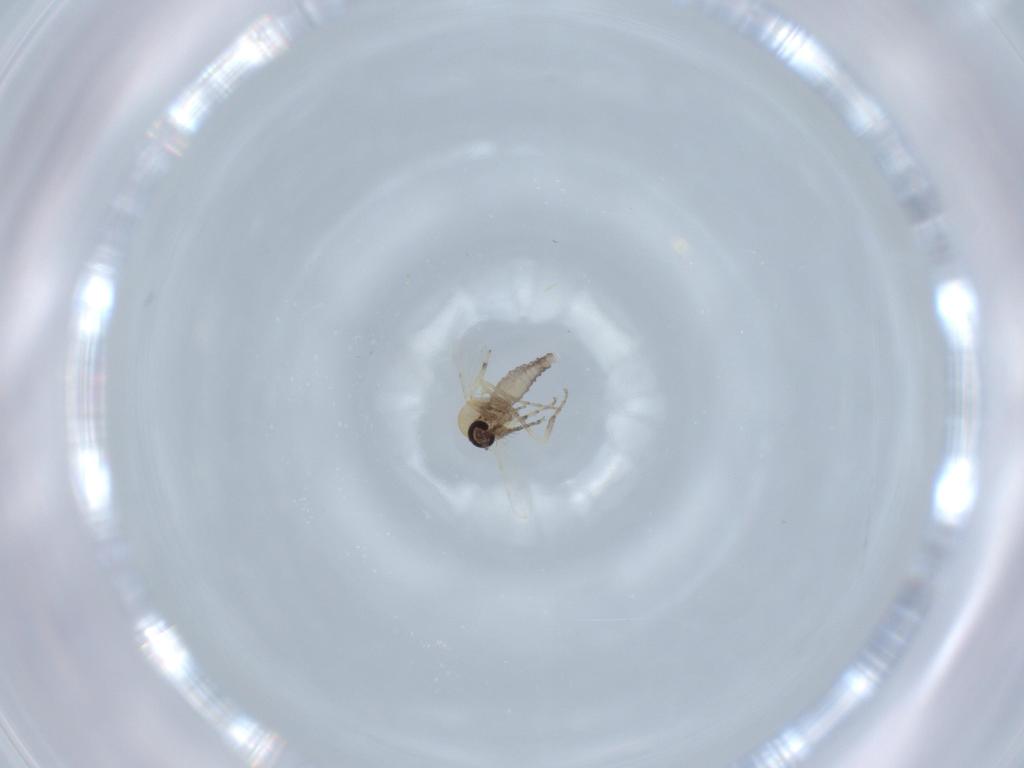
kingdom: Animalia
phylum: Arthropoda
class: Insecta
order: Diptera
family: Ceratopogonidae
